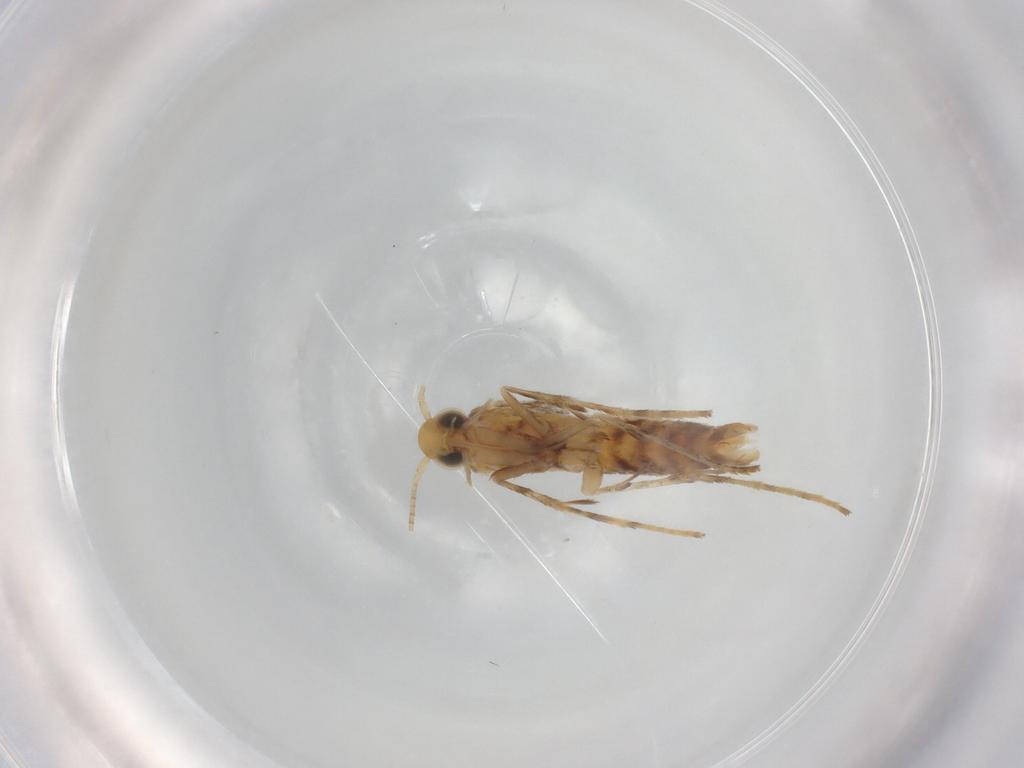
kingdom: Animalia
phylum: Arthropoda
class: Insecta
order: Lepidoptera
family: Gracillariidae
